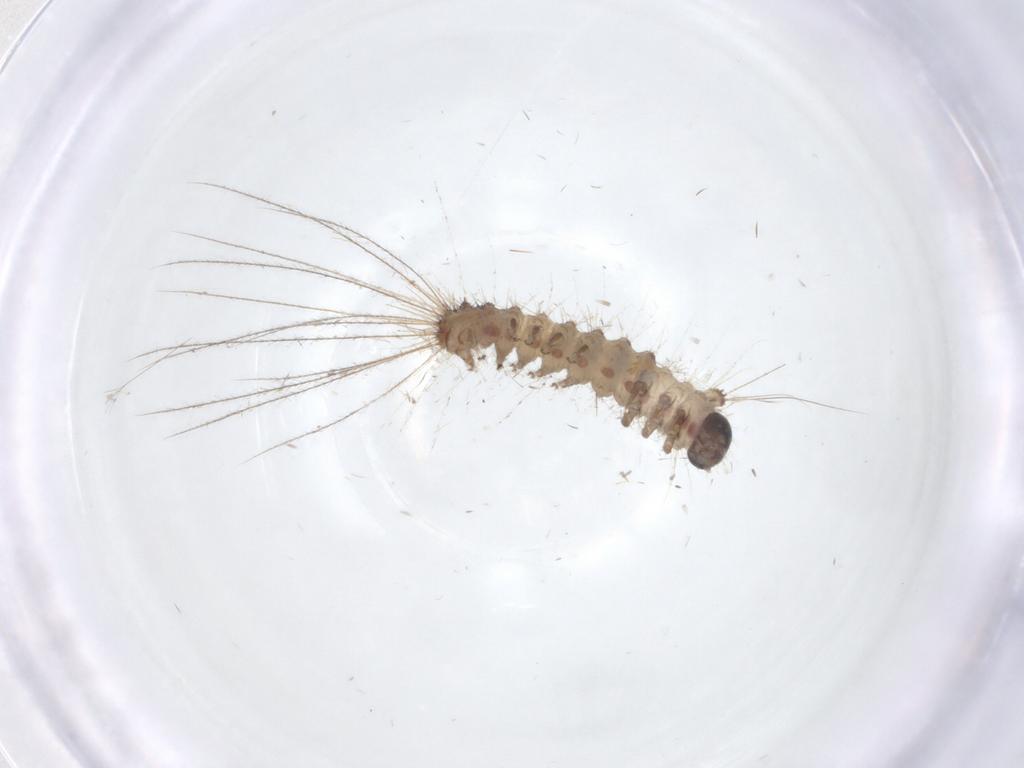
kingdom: Animalia
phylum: Arthropoda
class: Insecta
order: Lepidoptera
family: Erebidae
